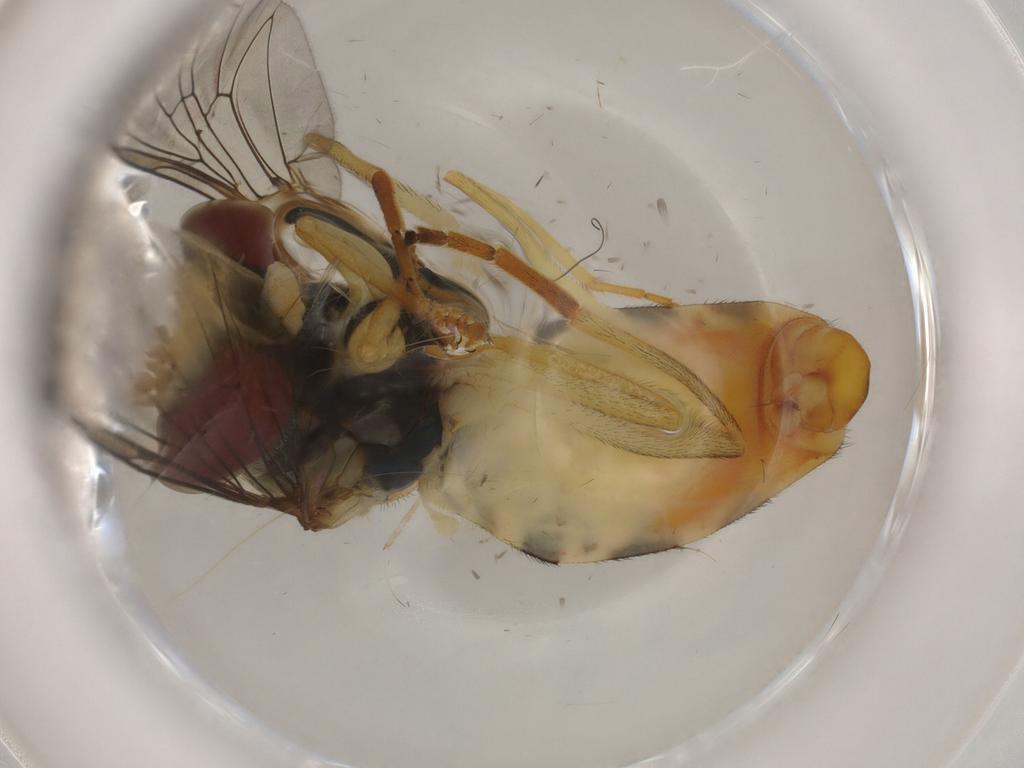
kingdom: Animalia
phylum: Arthropoda
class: Insecta
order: Diptera
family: Syrphidae
